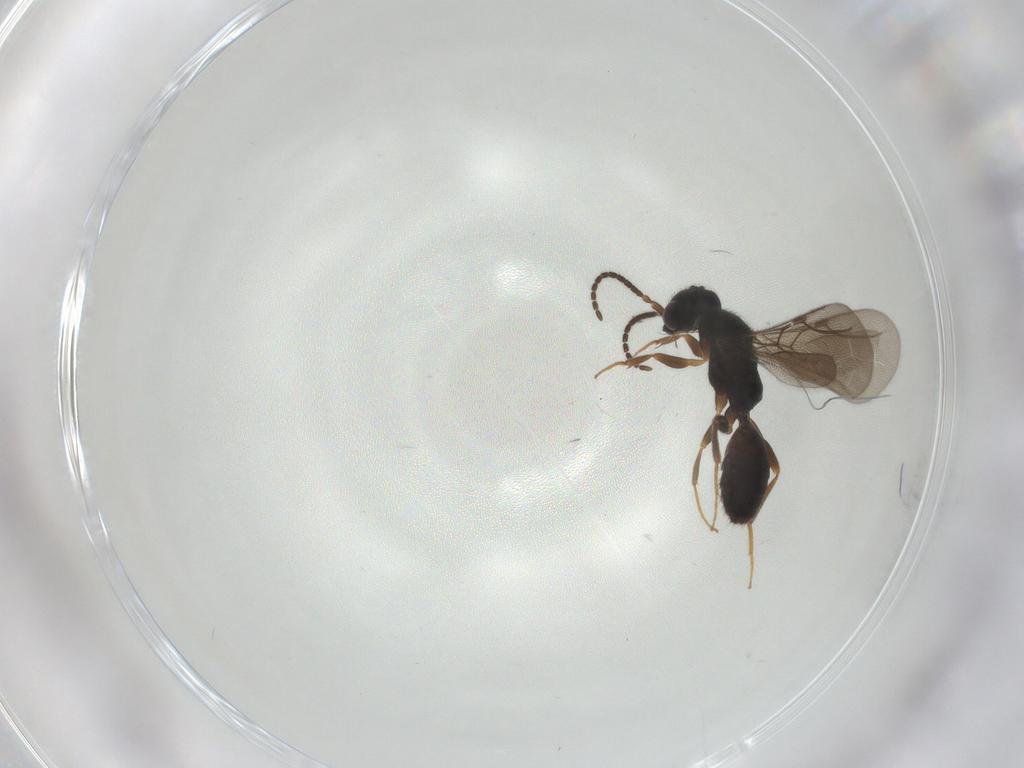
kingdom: Animalia
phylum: Arthropoda
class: Insecta
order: Hymenoptera
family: Bethylidae
